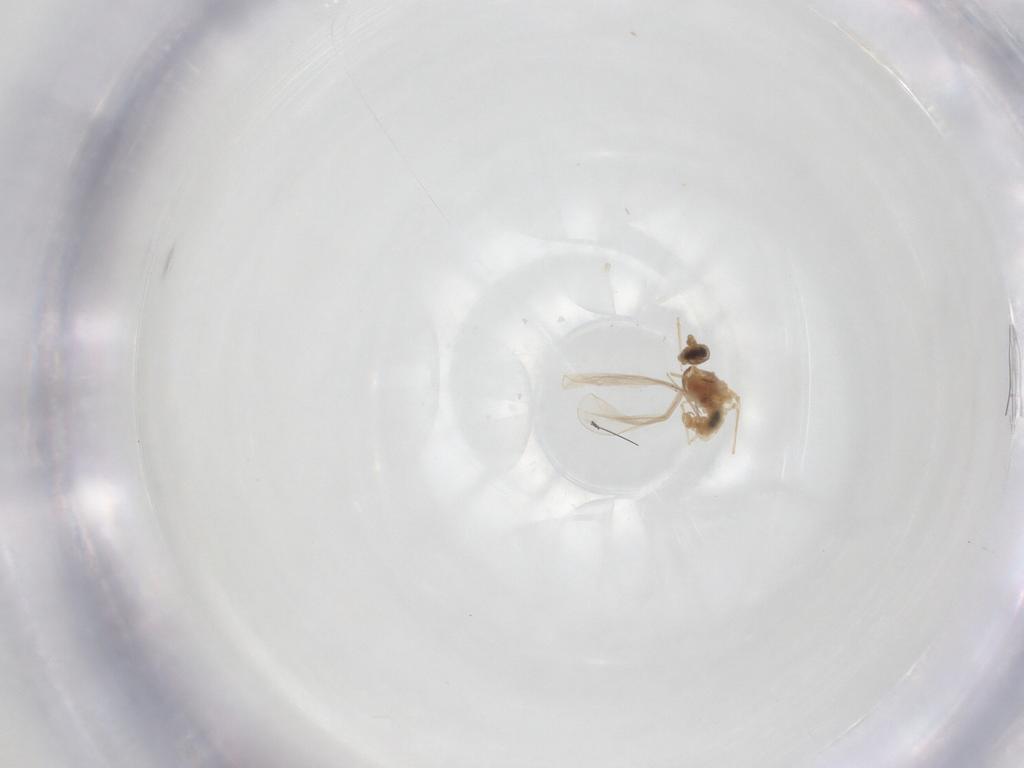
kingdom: Animalia
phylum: Arthropoda
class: Insecta
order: Diptera
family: Cecidomyiidae
